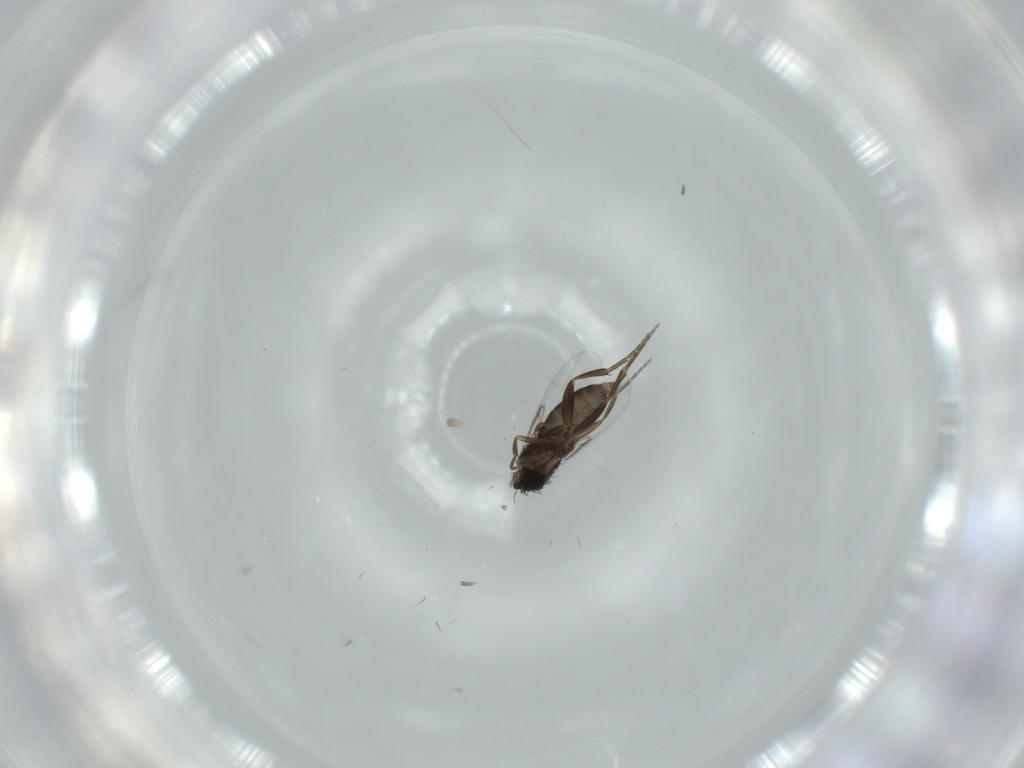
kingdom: Animalia
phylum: Arthropoda
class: Insecta
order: Diptera
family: Phoridae
